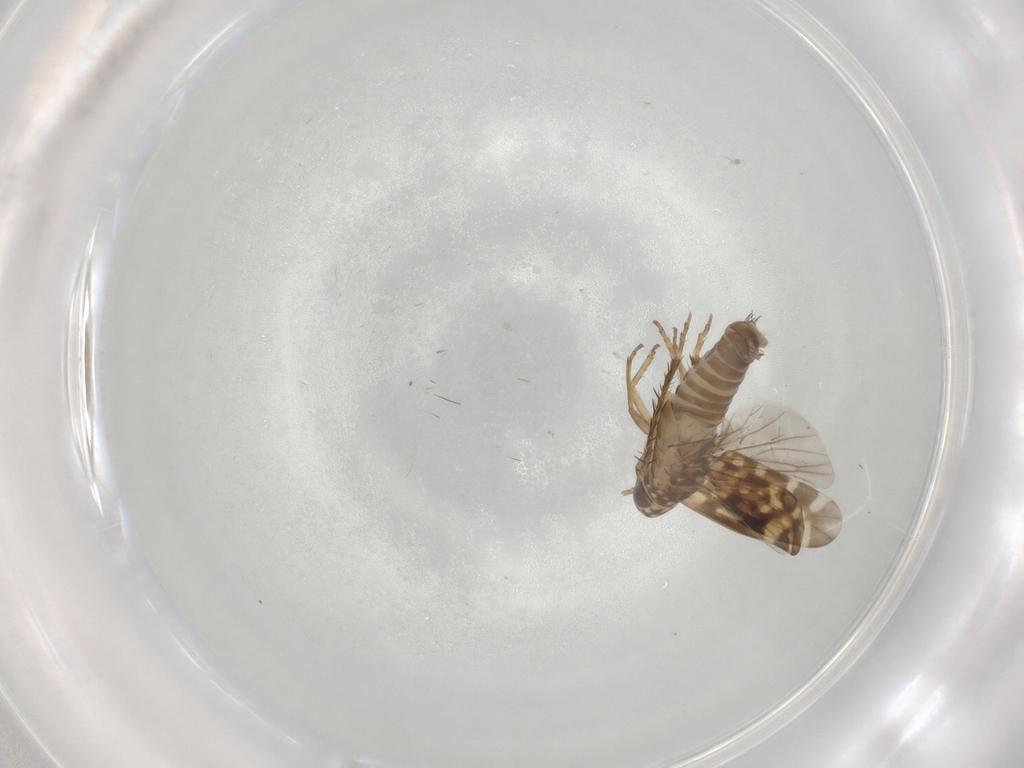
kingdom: Animalia
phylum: Arthropoda
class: Insecta
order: Hemiptera
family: Cicadellidae
